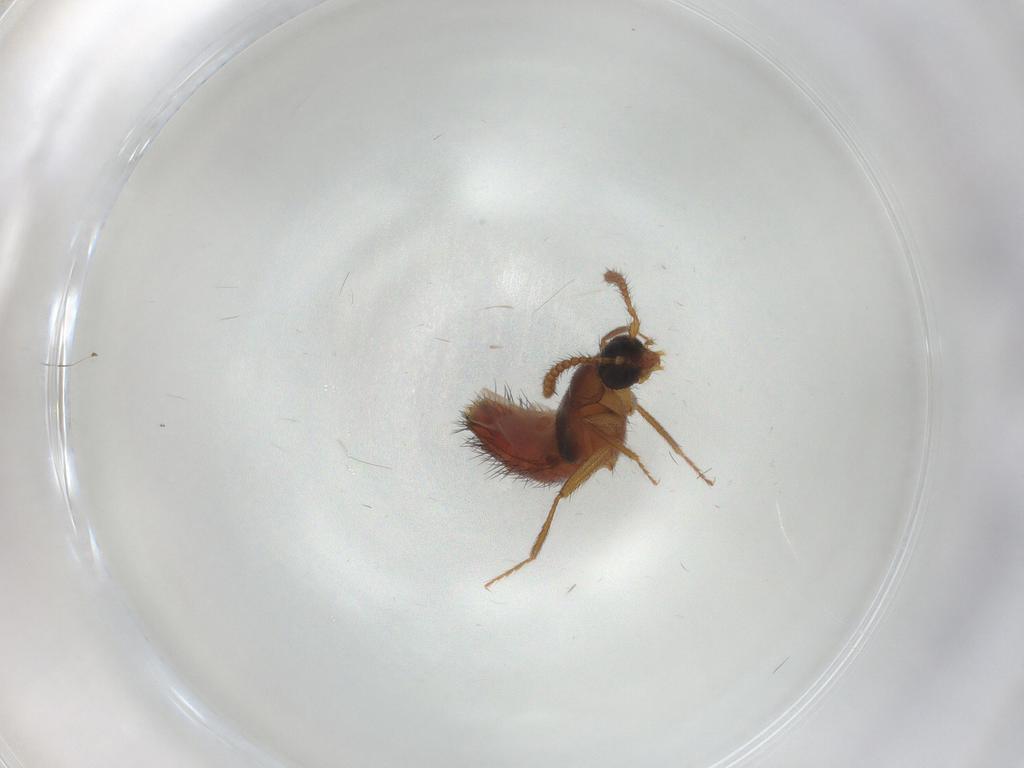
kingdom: Animalia
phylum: Arthropoda
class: Insecta
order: Coleoptera
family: Staphylinidae
